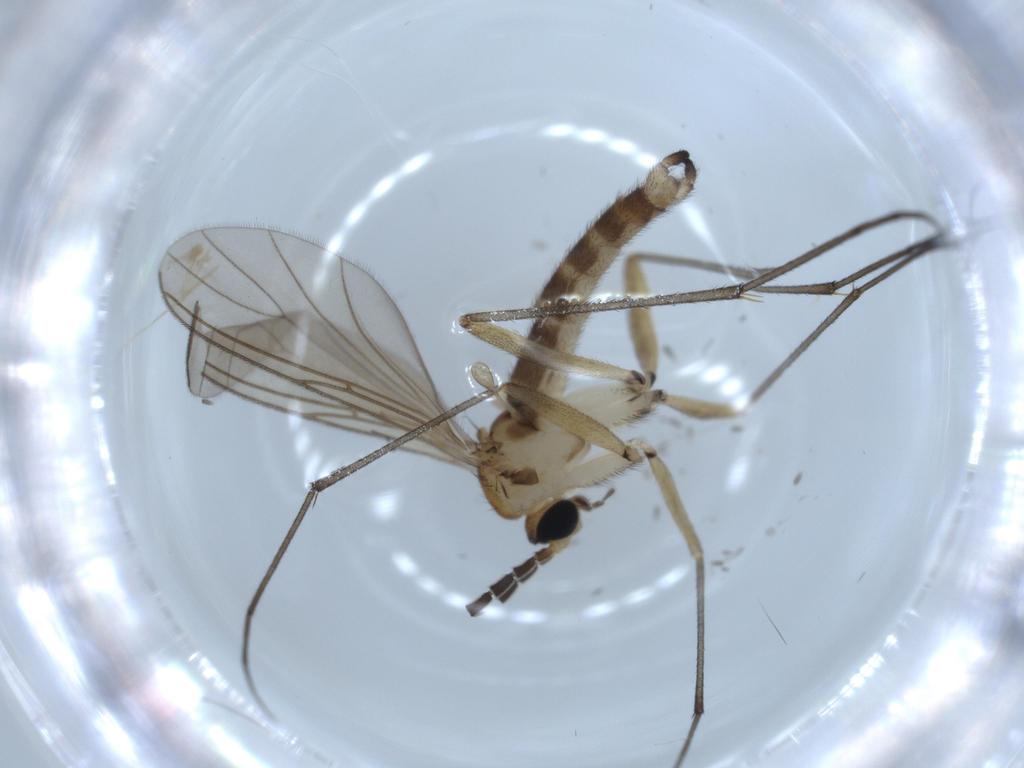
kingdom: Animalia
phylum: Arthropoda
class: Insecta
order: Diptera
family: Sciaridae
